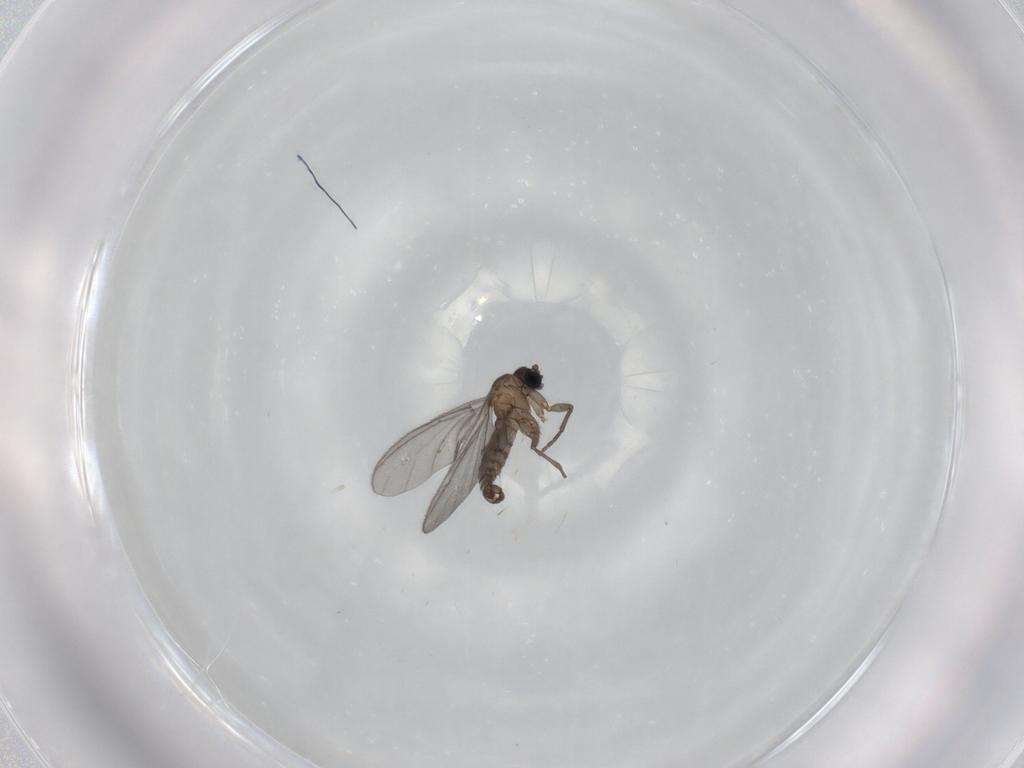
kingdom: Animalia
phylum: Arthropoda
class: Insecta
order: Diptera
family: Sciaridae
